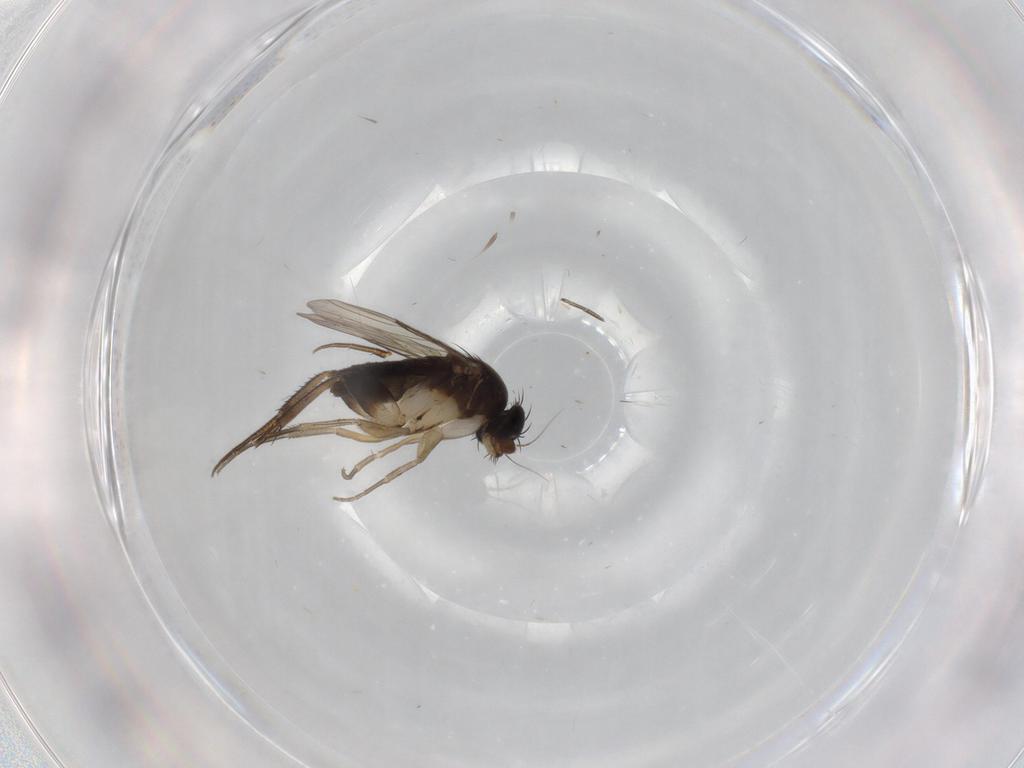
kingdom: Animalia
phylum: Arthropoda
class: Insecta
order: Diptera
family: Phoridae
